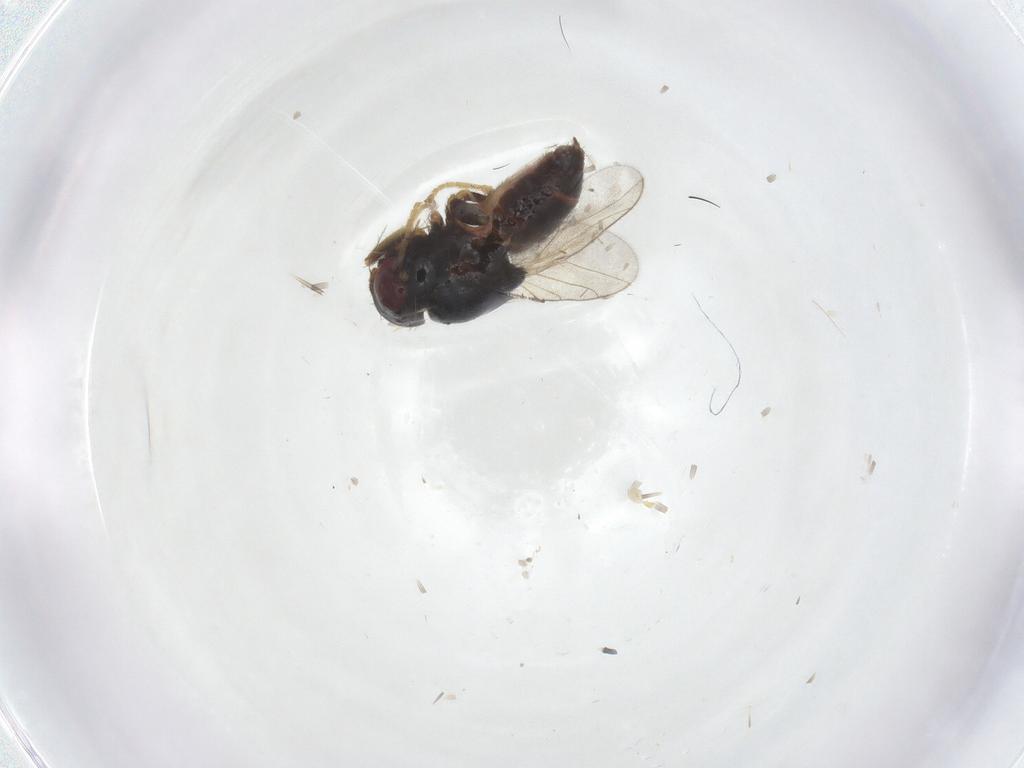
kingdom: Animalia
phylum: Arthropoda
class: Insecta
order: Diptera
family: Chloropidae
